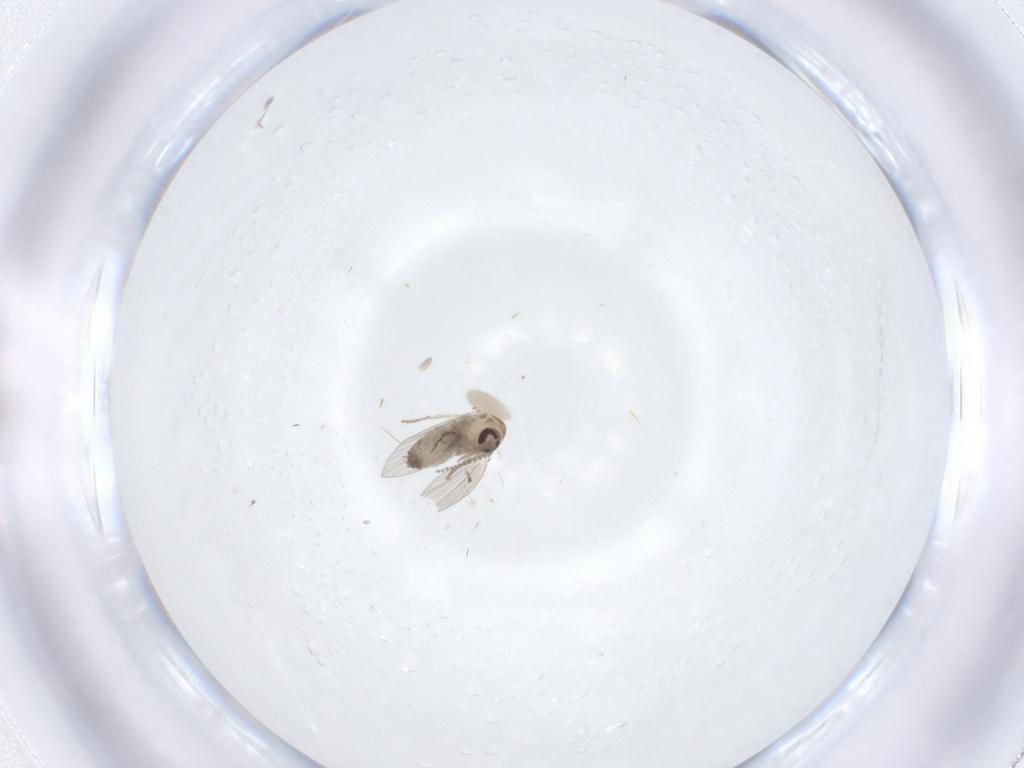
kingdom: Animalia
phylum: Arthropoda
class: Insecta
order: Diptera
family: Psychodidae
